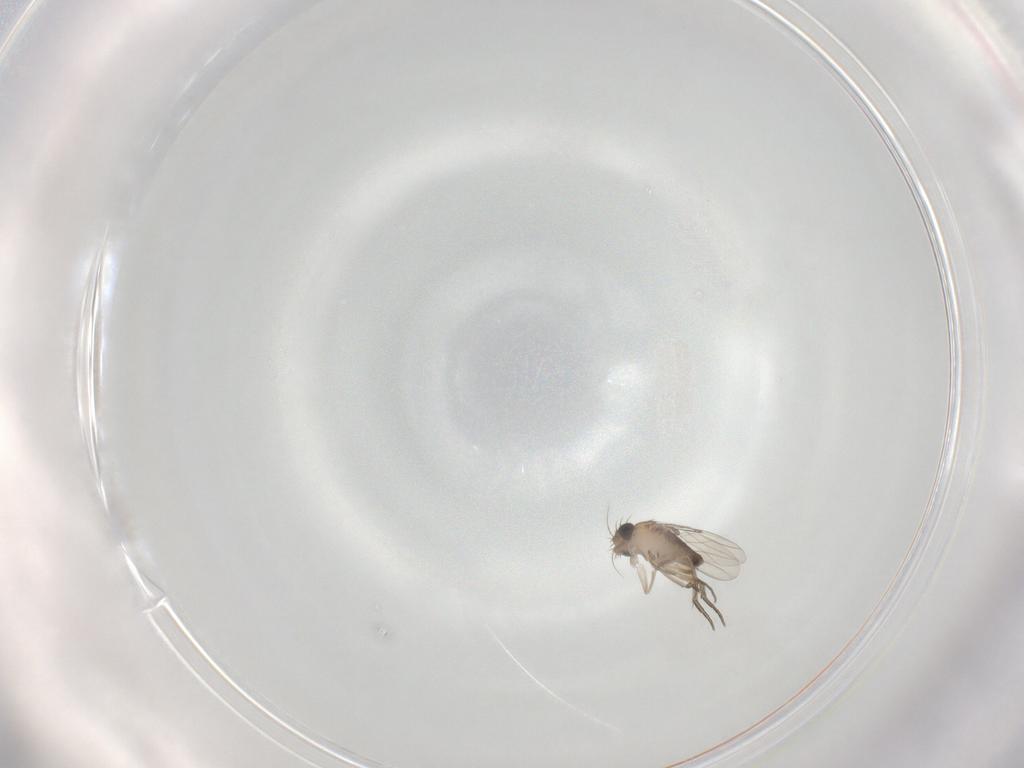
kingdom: Animalia
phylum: Arthropoda
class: Insecta
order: Diptera
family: Phoridae
